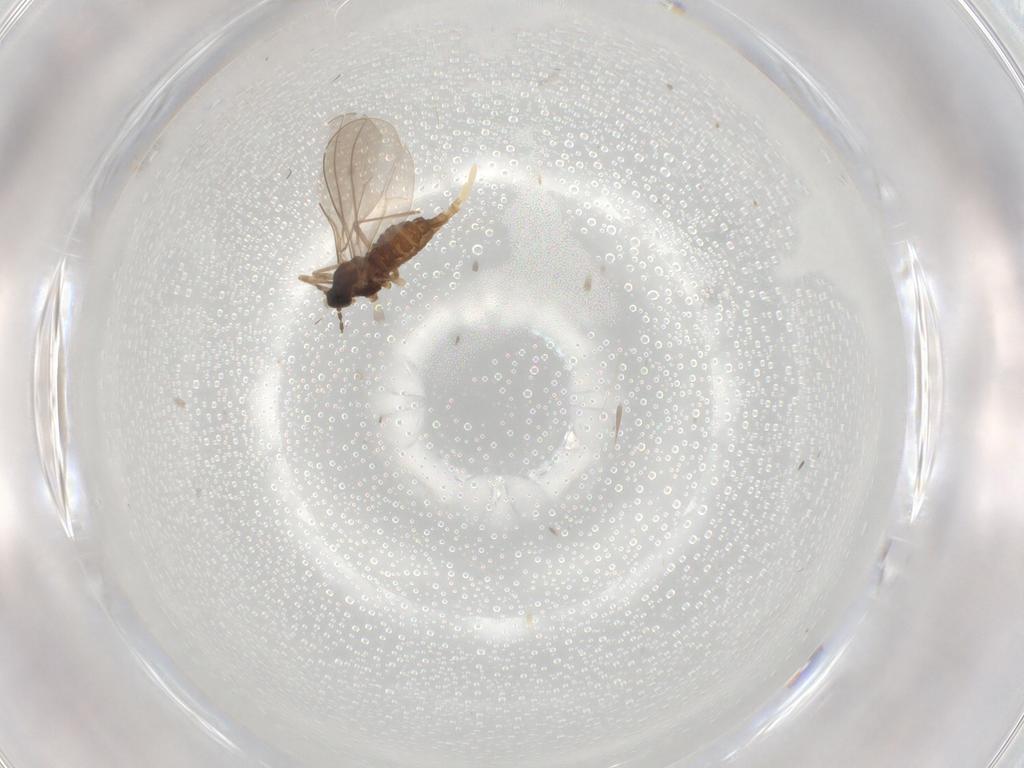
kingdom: Animalia
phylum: Arthropoda
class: Insecta
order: Diptera
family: Cecidomyiidae
